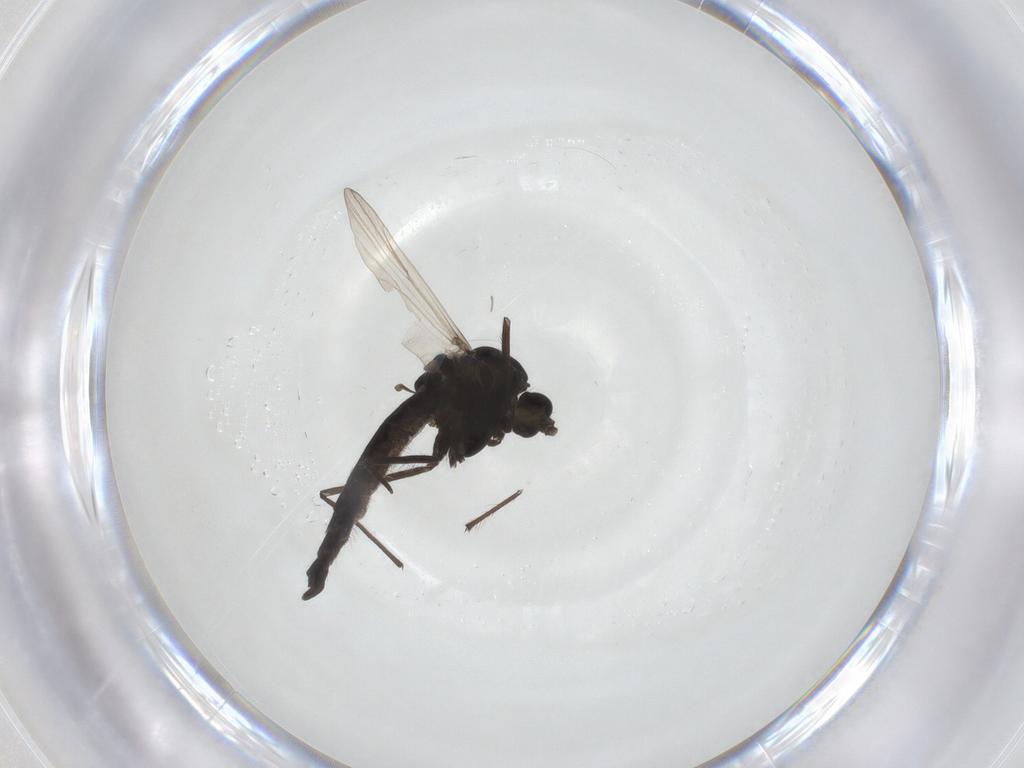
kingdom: Animalia
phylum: Arthropoda
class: Insecta
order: Diptera
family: Chironomidae
